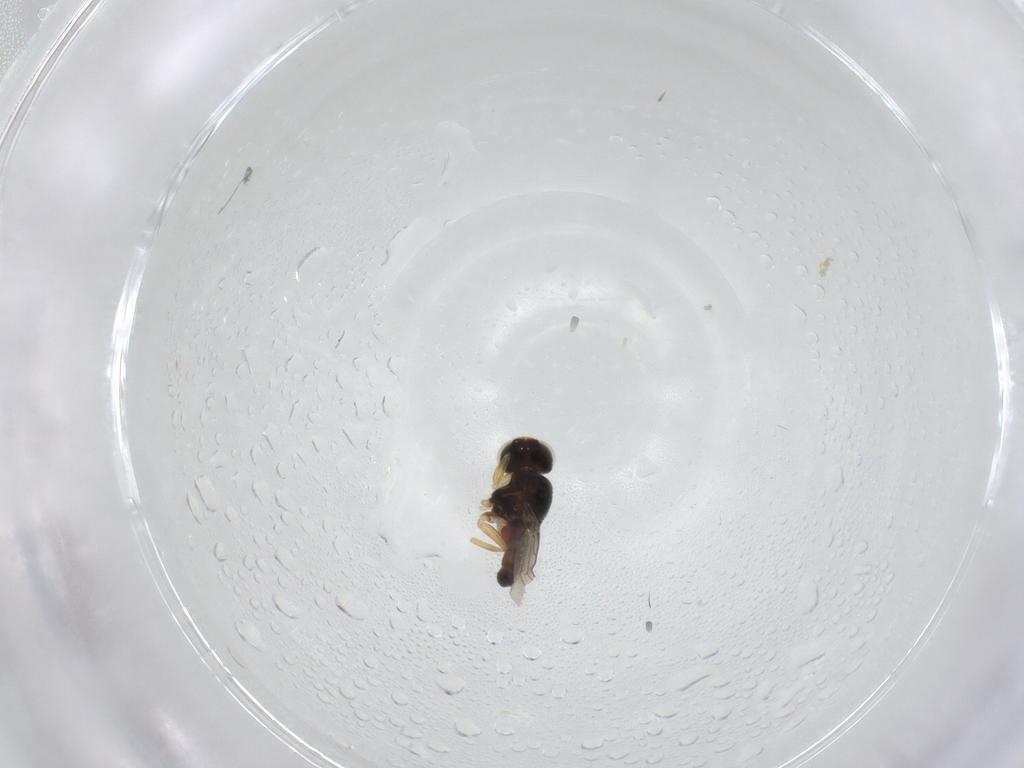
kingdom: Animalia
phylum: Arthropoda
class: Insecta
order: Diptera
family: Chloropidae
